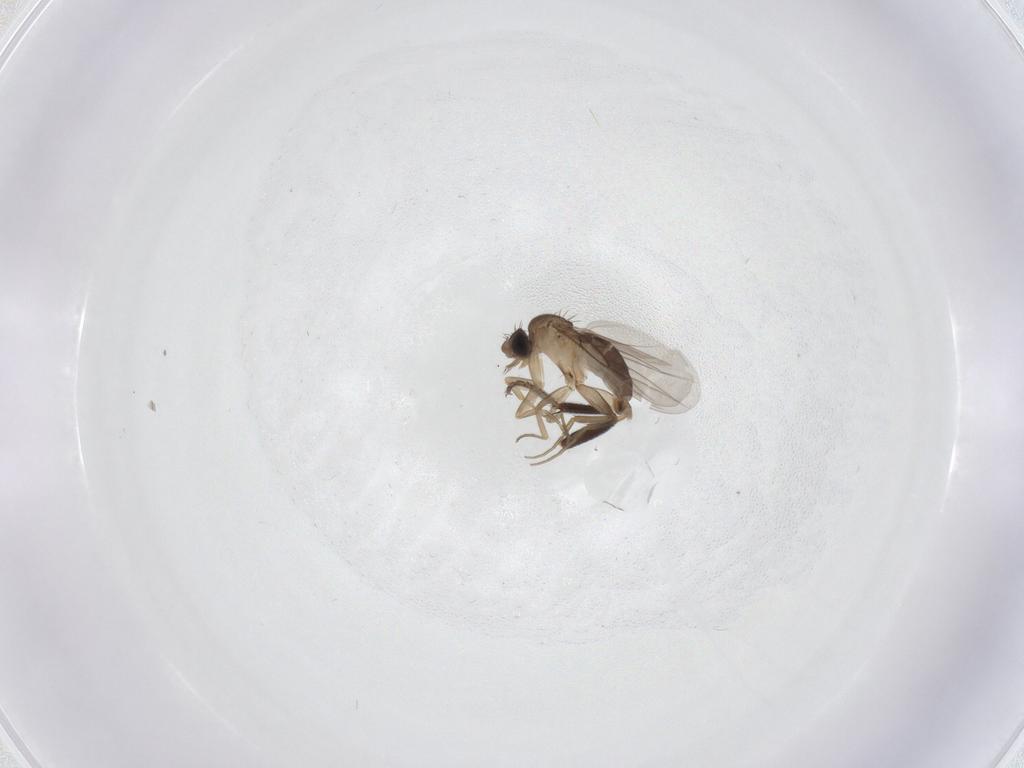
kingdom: Animalia
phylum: Arthropoda
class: Insecta
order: Diptera
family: Phoridae
